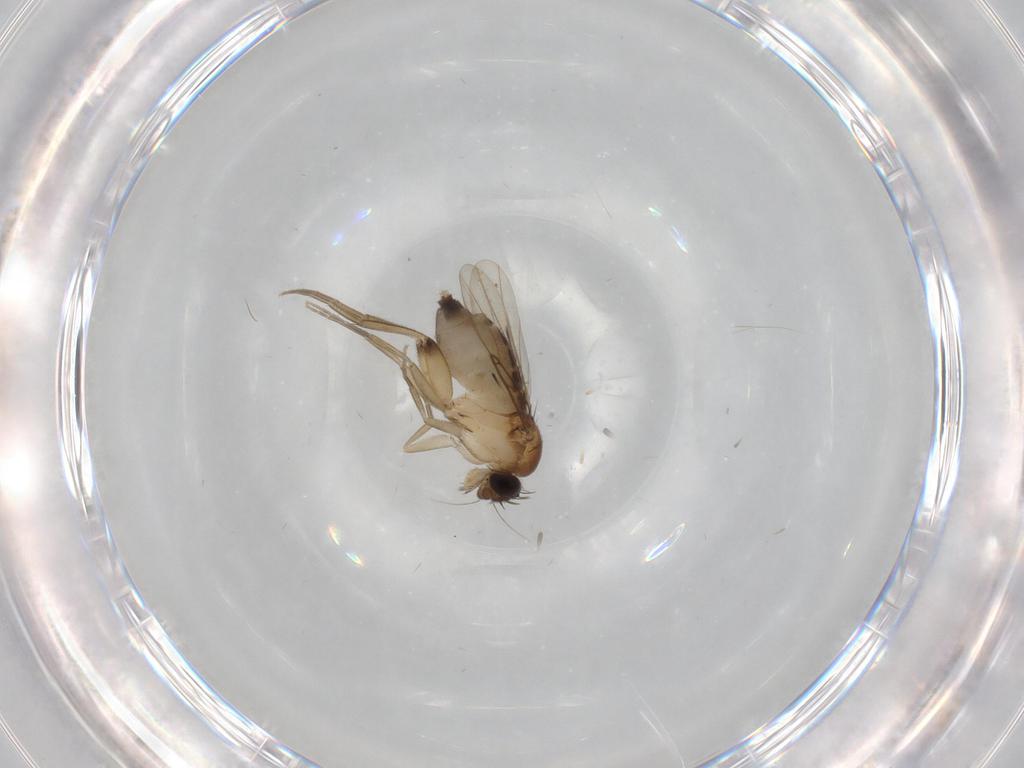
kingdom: Animalia
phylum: Arthropoda
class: Insecta
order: Diptera
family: Phoridae
